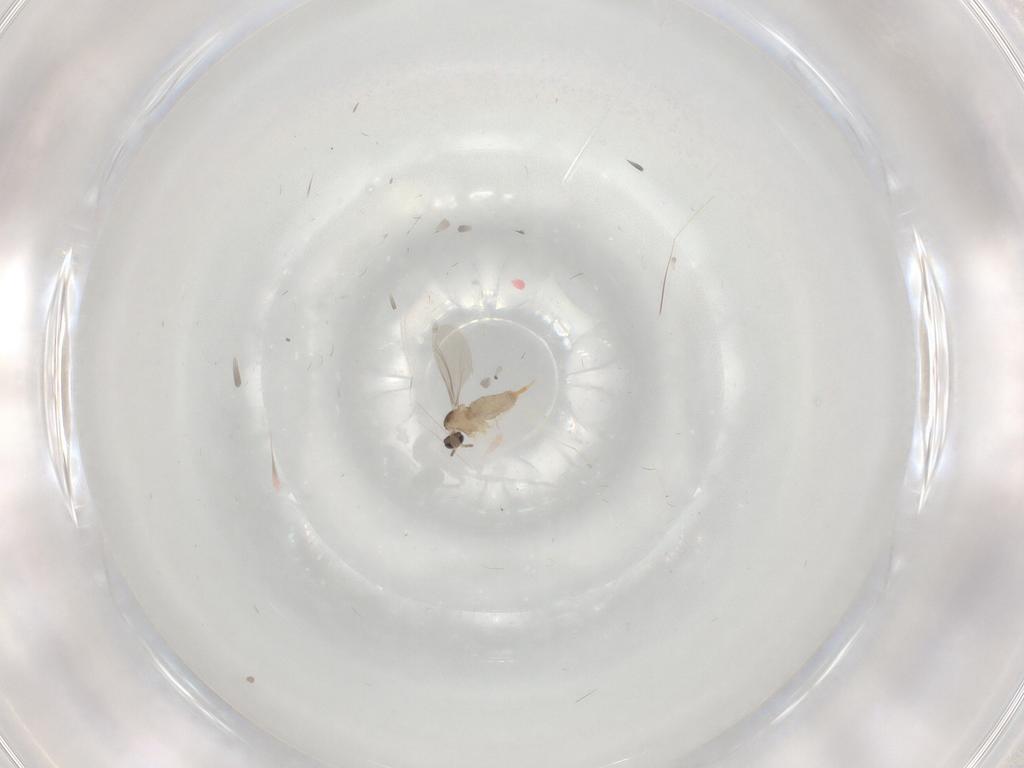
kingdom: Animalia
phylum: Arthropoda
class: Insecta
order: Diptera
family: Cecidomyiidae
